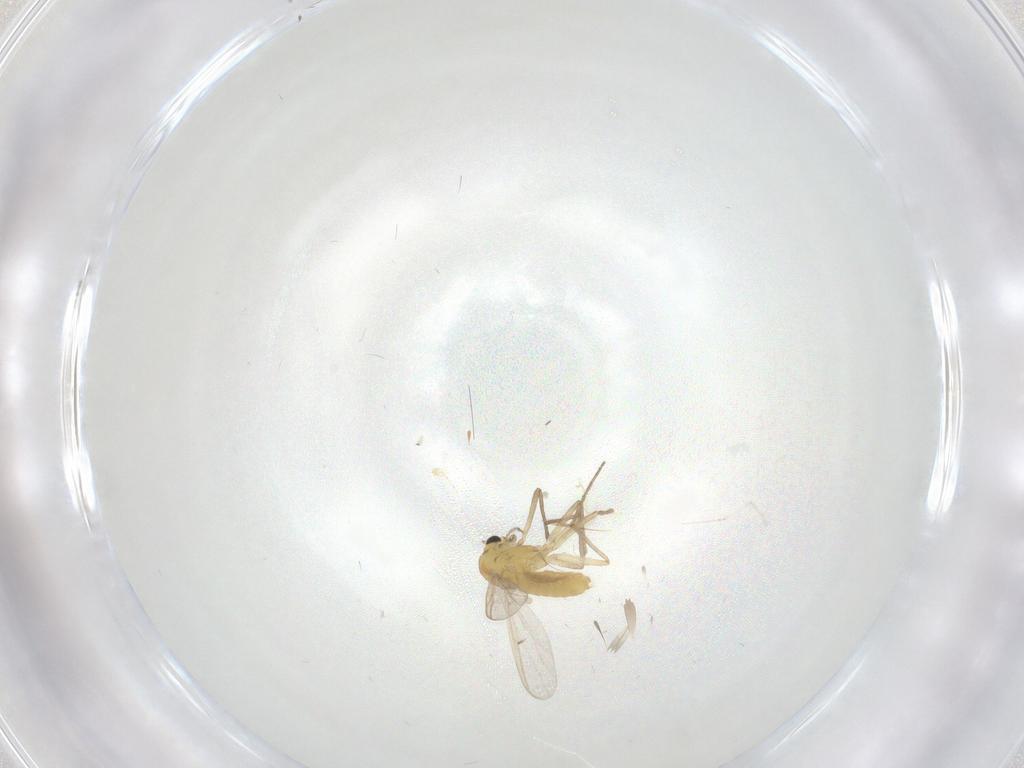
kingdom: Animalia
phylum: Arthropoda
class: Insecta
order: Diptera
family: Cecidomyiidae
